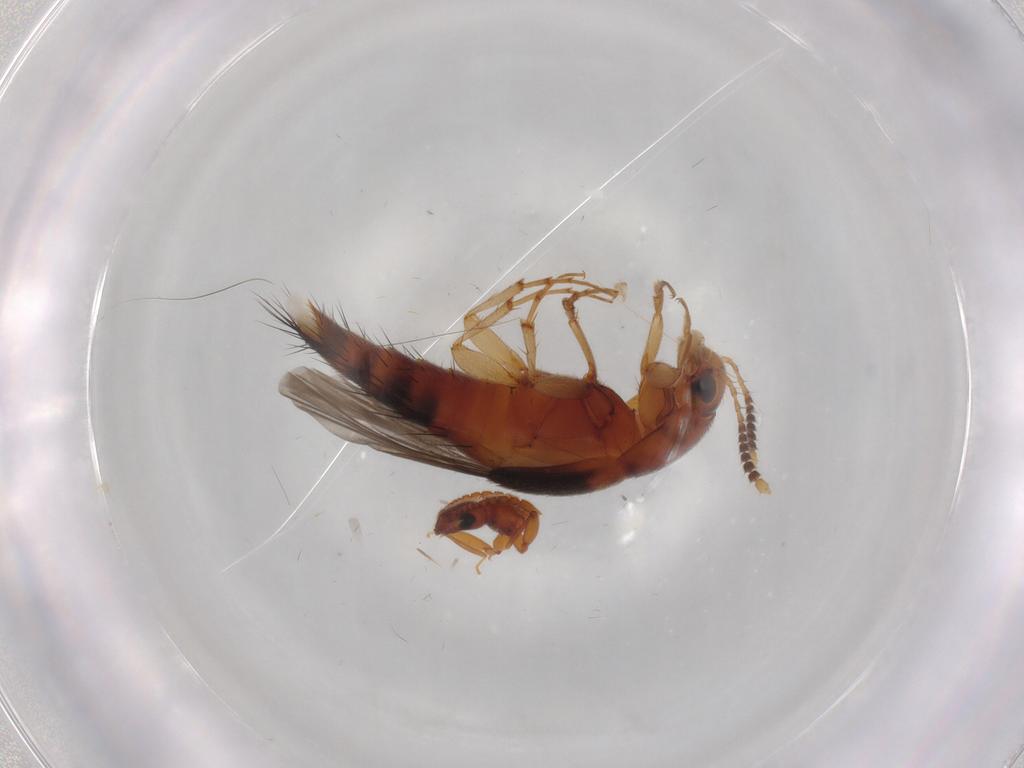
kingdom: Animalia
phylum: Arthropoda
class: Insecta
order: Coleoptera
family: Staphylinidae
